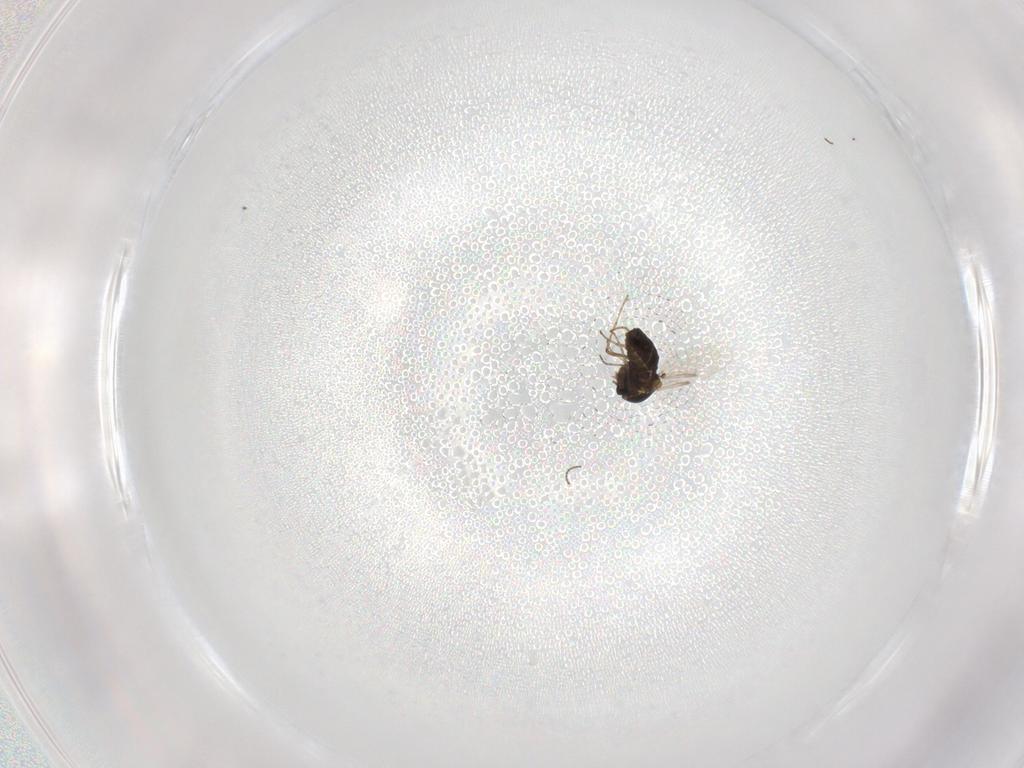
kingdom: Animalia
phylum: Arthropoda
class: Insecta
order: Diptera
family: Ceratopogonidae
